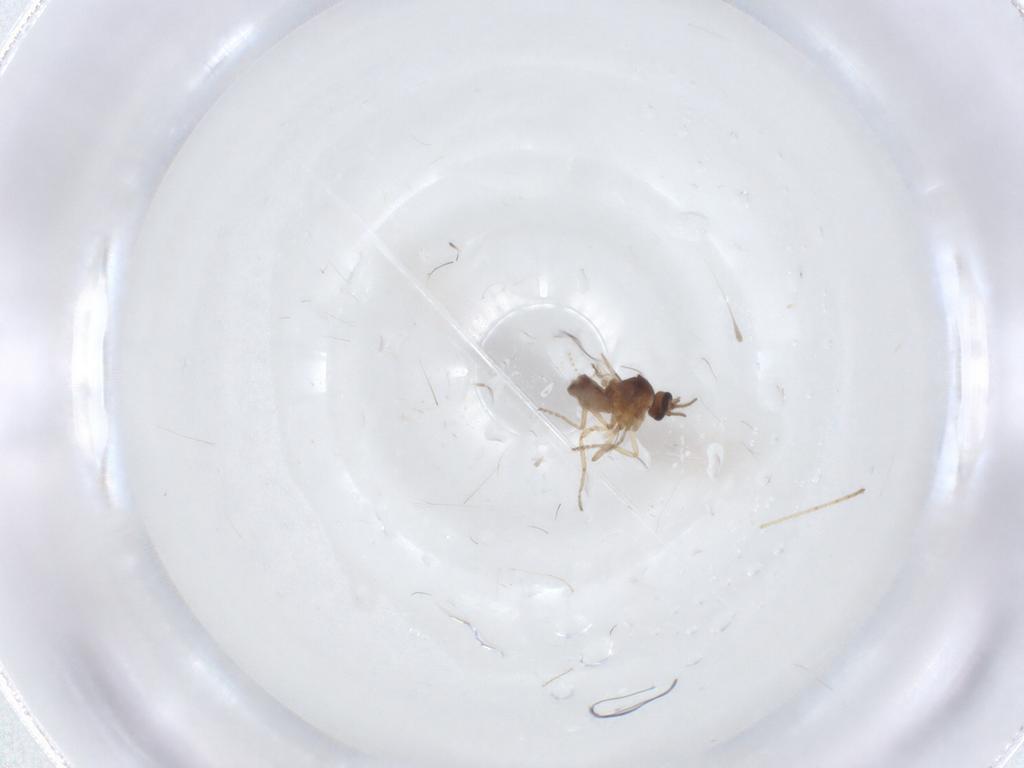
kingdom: Animalia
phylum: Arthropoda
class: Insecta
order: Diptera
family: Ceratopogonidae
